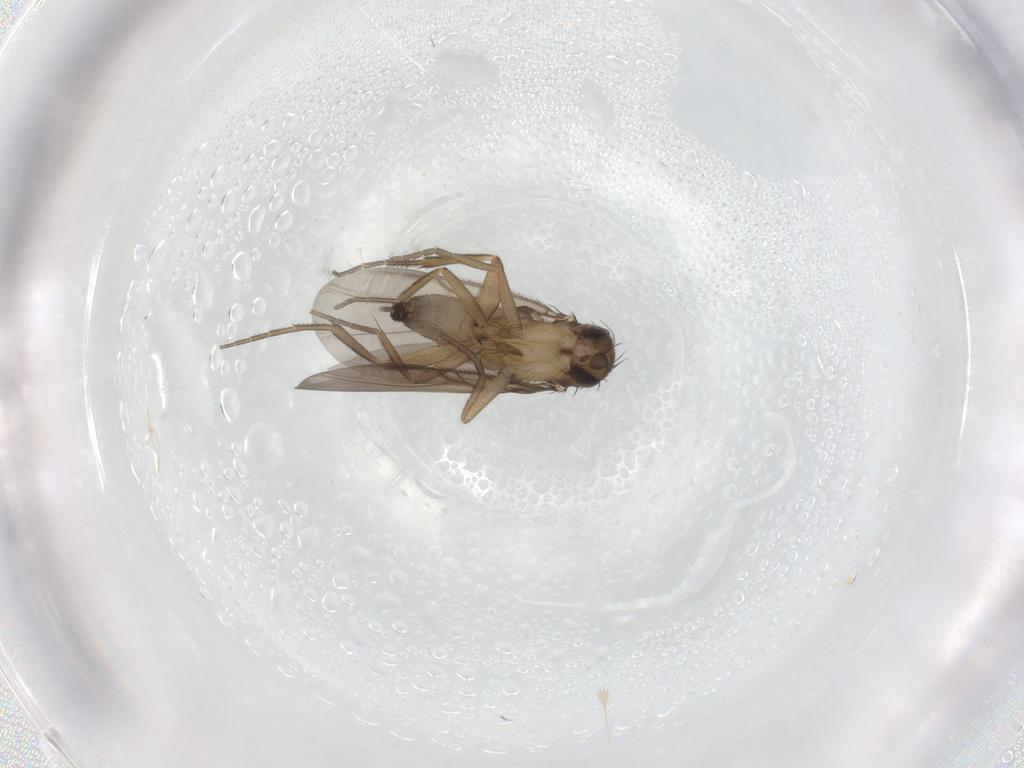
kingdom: Animalia
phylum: Arthropoda
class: Insecta
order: Diptera
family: Phoridae
